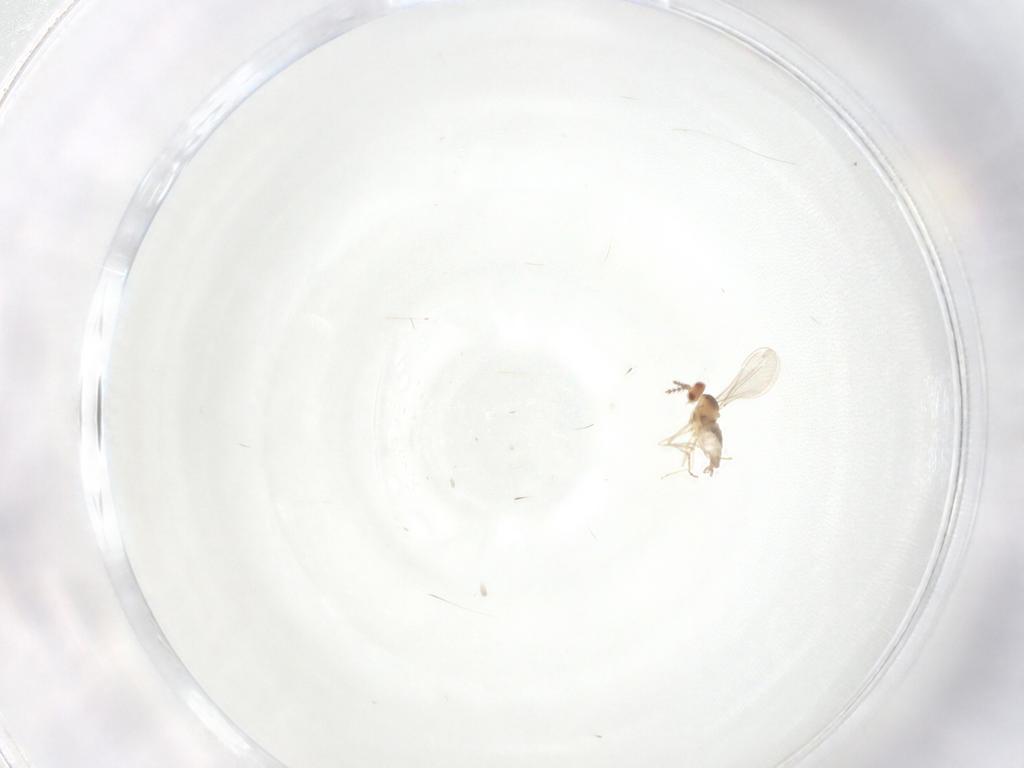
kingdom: Animalia
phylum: Arthropoda
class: Insecta
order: Diptera
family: Cecidomyiidae
